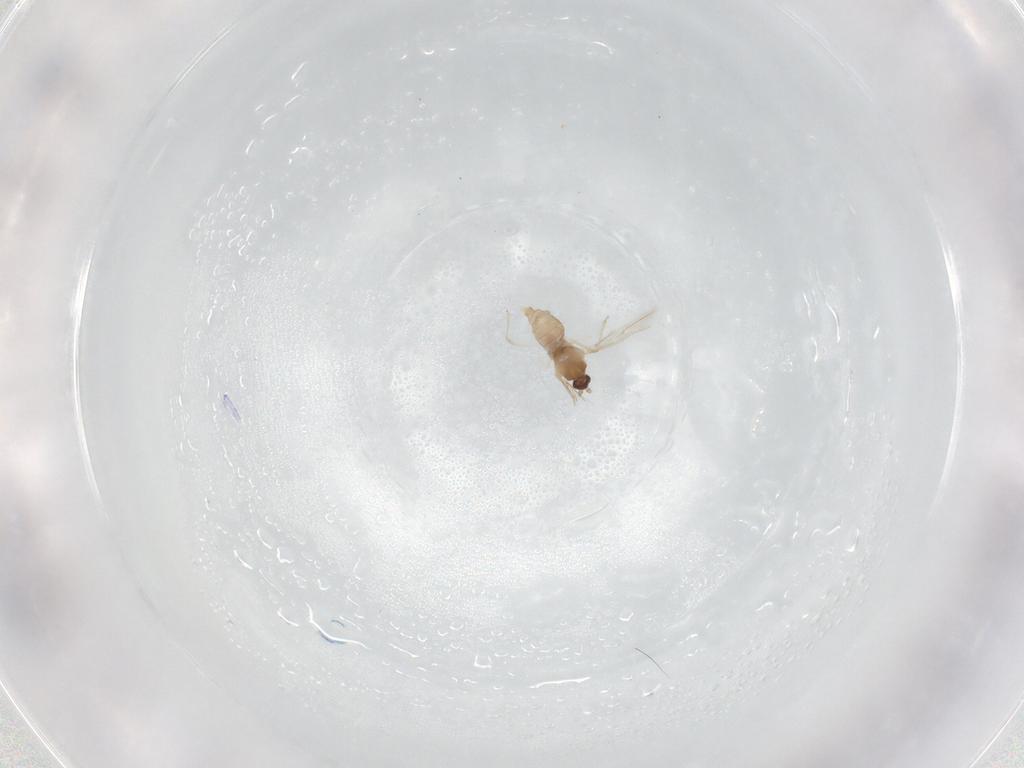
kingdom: Animalia
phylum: Arthropoda
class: Insecta
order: Diptera
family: Cecidomyiidae
